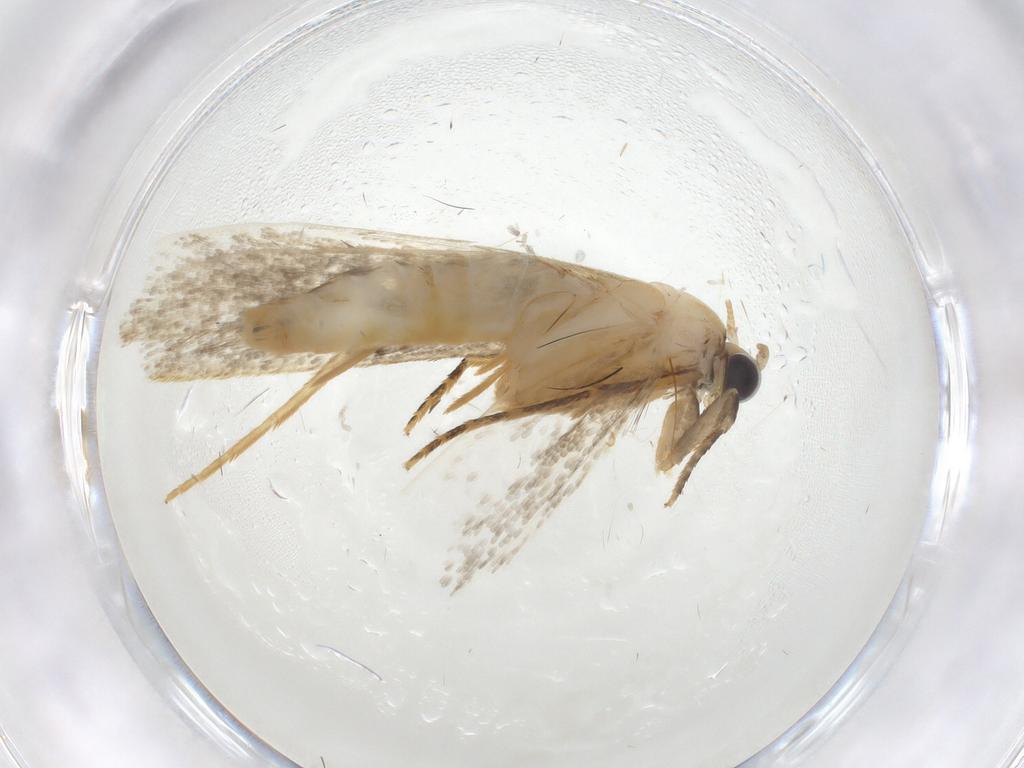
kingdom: Animalia
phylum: Arthropoda
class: Insecta
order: Lepidoptera
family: Tineidae
